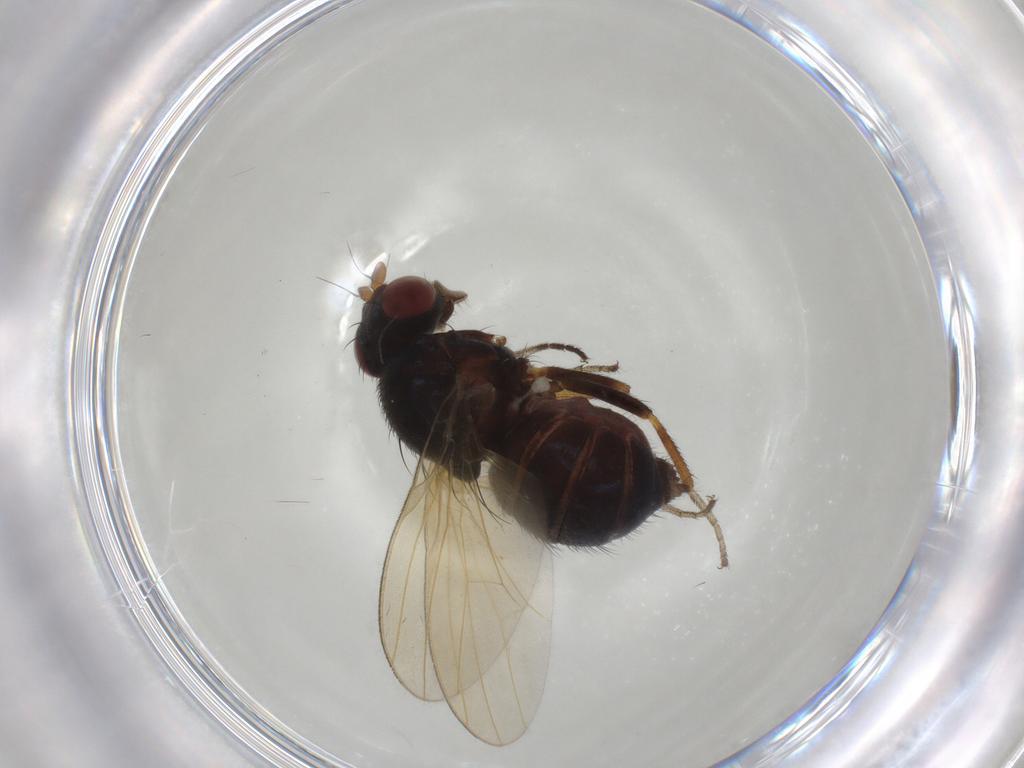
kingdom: Animalia
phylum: Arthropoda
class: Insecta
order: Diptera
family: Chironomidae
